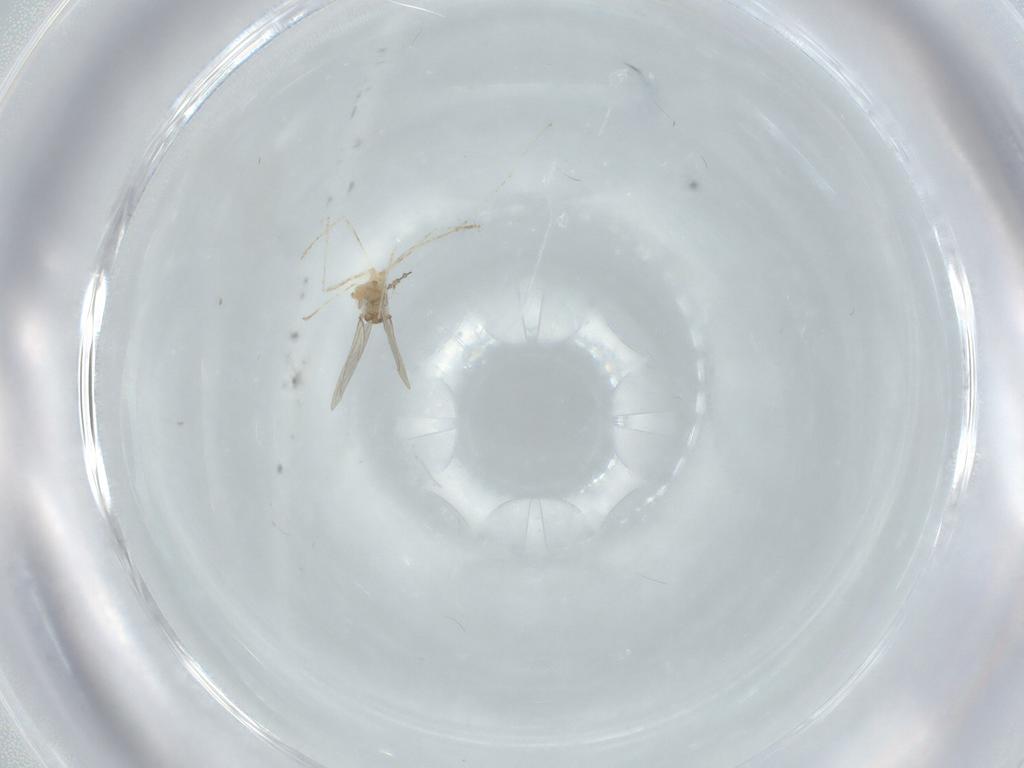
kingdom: Animalia
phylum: Arthropoda
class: Insecta
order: Diptera
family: Cecidomyiidae
